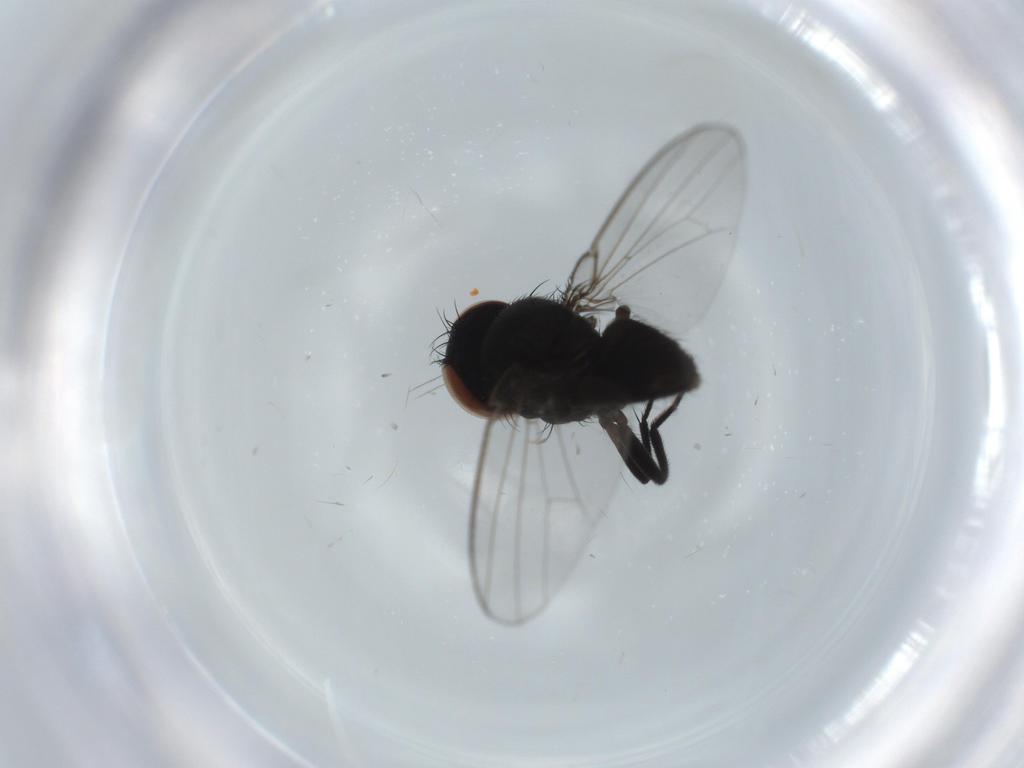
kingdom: Animalia
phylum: Arthropoda
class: Insecta
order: Diptera
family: Milichiidae
